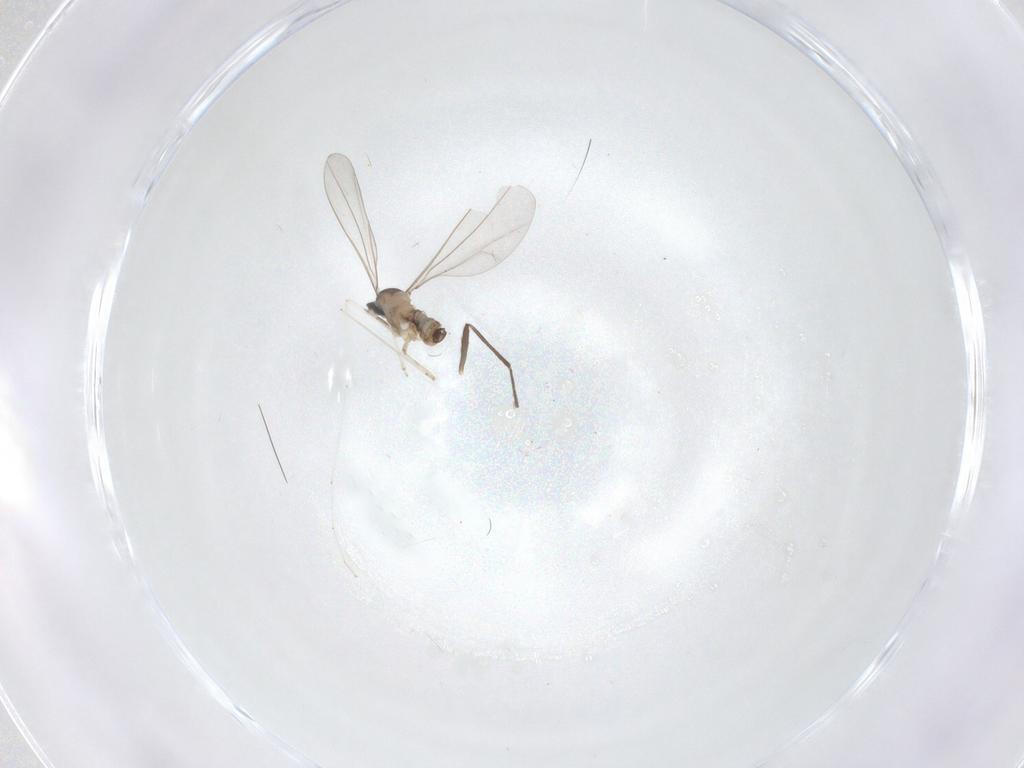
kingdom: Animalia
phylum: Arthropoda
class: Insecta
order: Diptera
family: Cecidomyiidae
